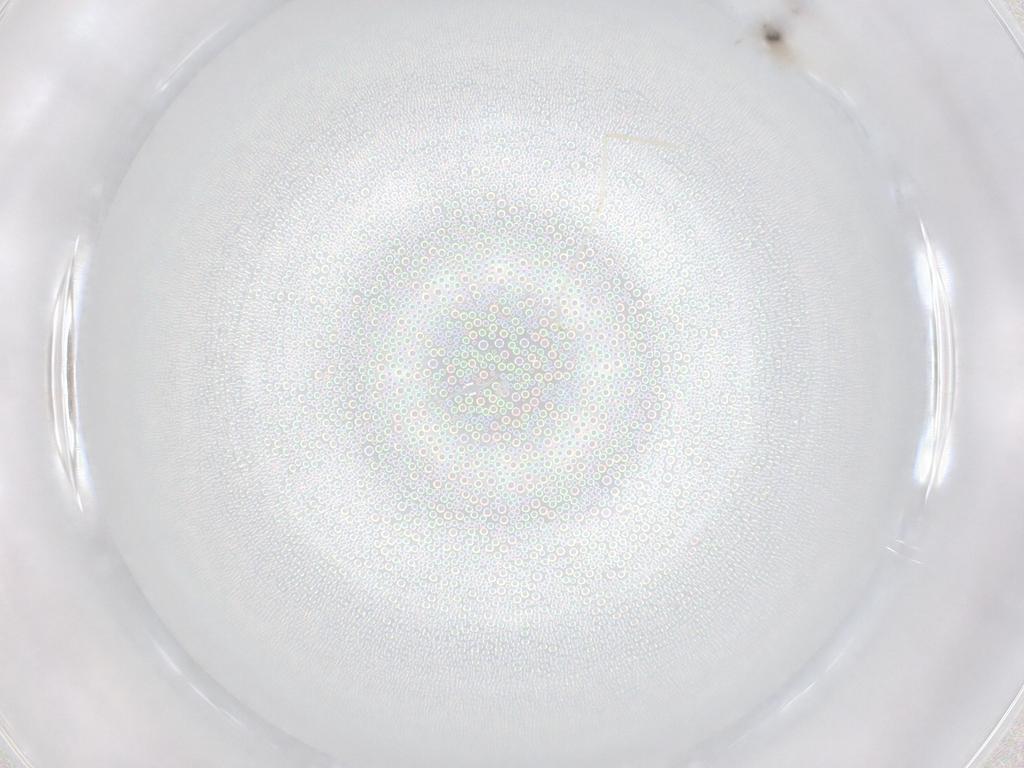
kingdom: Animalia
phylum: Arthropoda
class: Insecta
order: Diptera
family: Psychodidae
